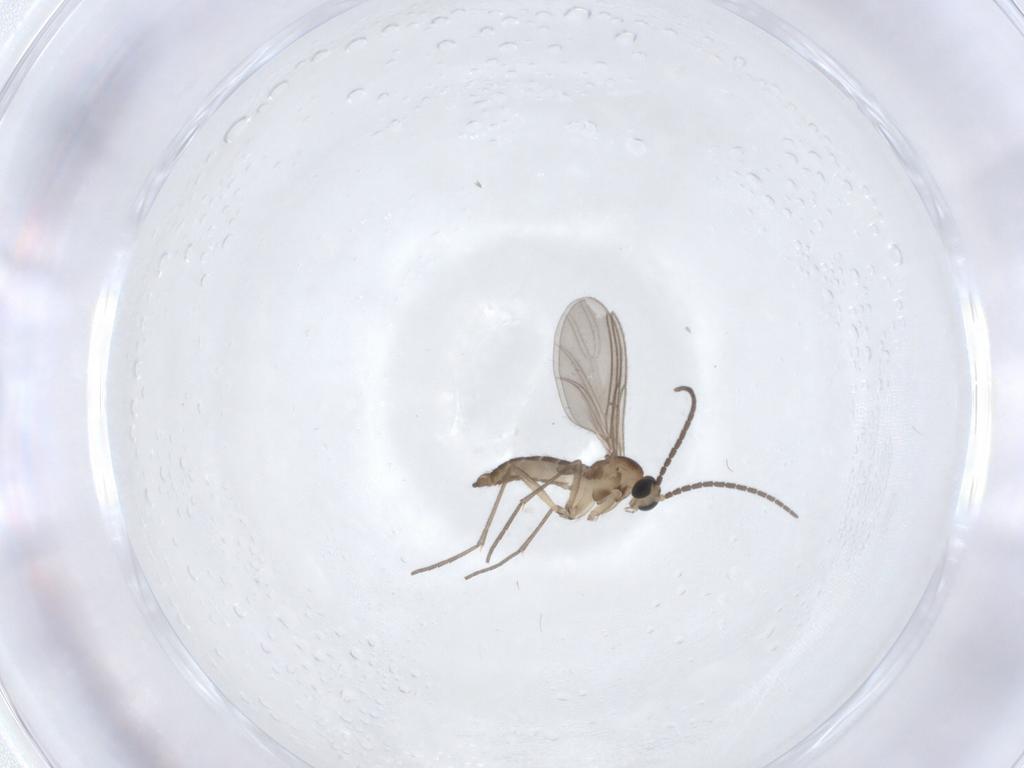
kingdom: Animalia
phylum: Arthropoda
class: Insecta
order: Diptera
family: Sciaridae
